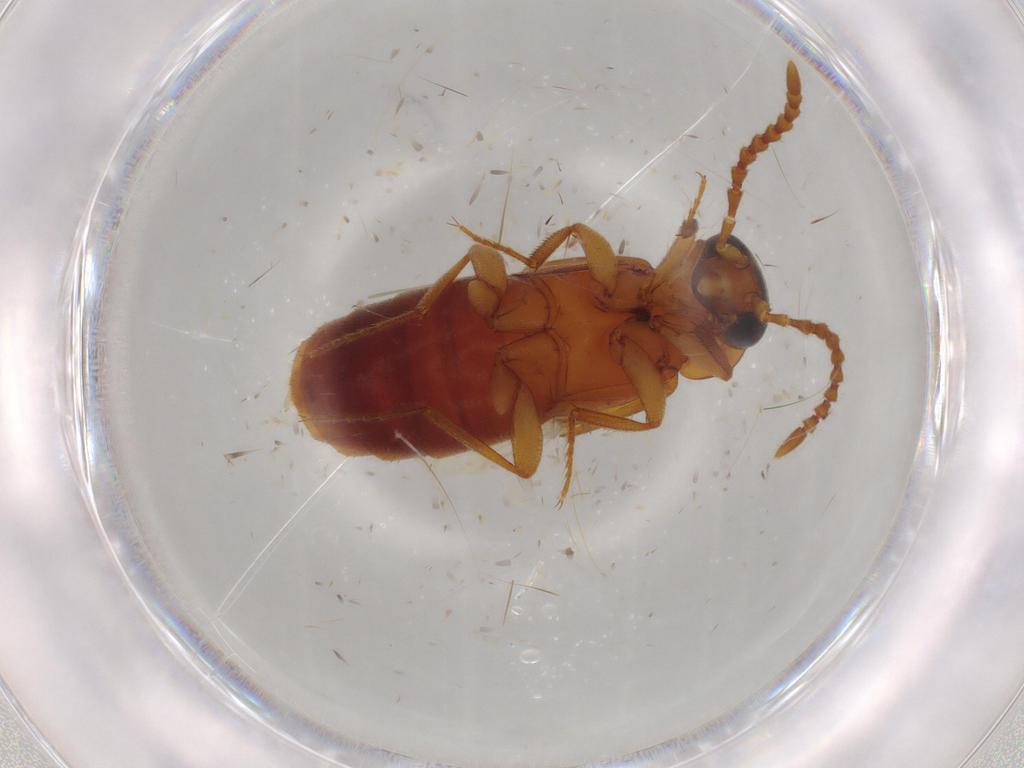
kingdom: Animalia
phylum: Arthropoda
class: Insecta
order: Coleoptera
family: Staphylinidae
